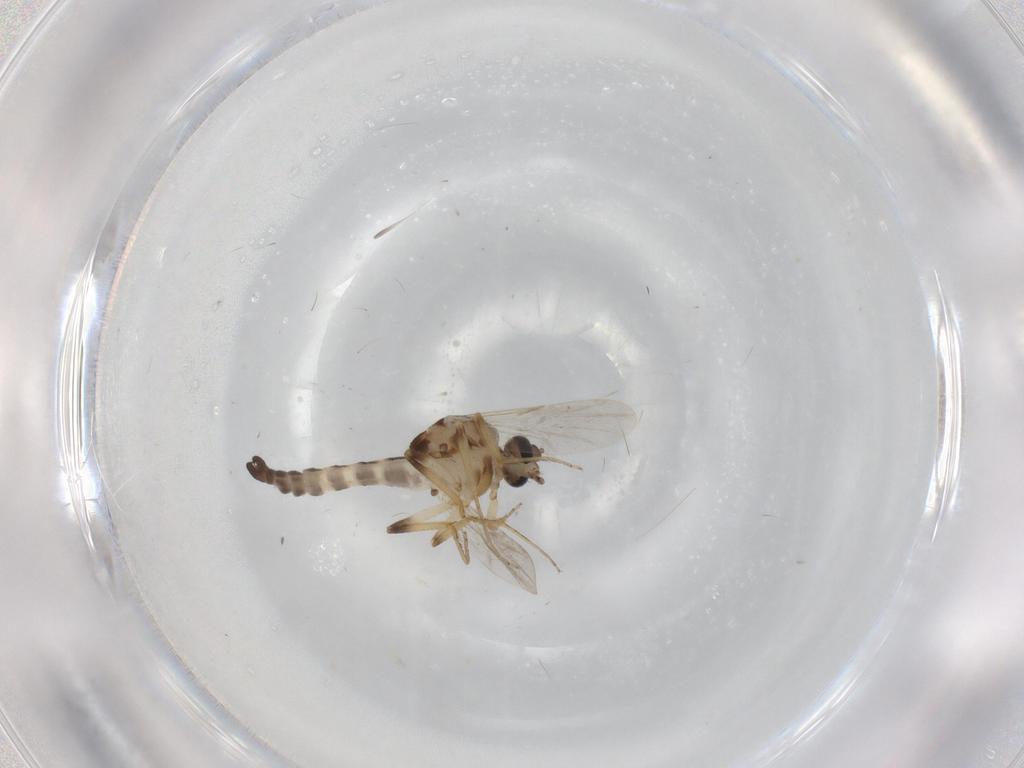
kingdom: Animalia
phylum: Arthropoda
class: Insecta
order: Diptera
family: Ceratopogonidae
